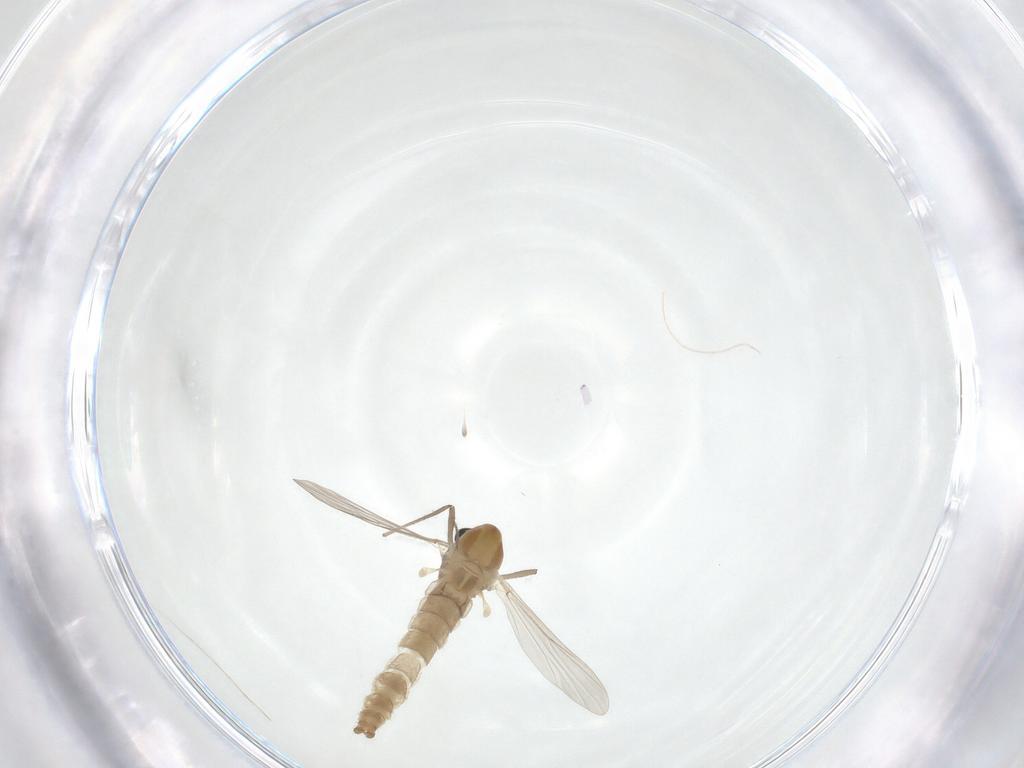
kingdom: Animalia
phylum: Arthropoda
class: Insecta
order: Diptera
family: Chironomidae
